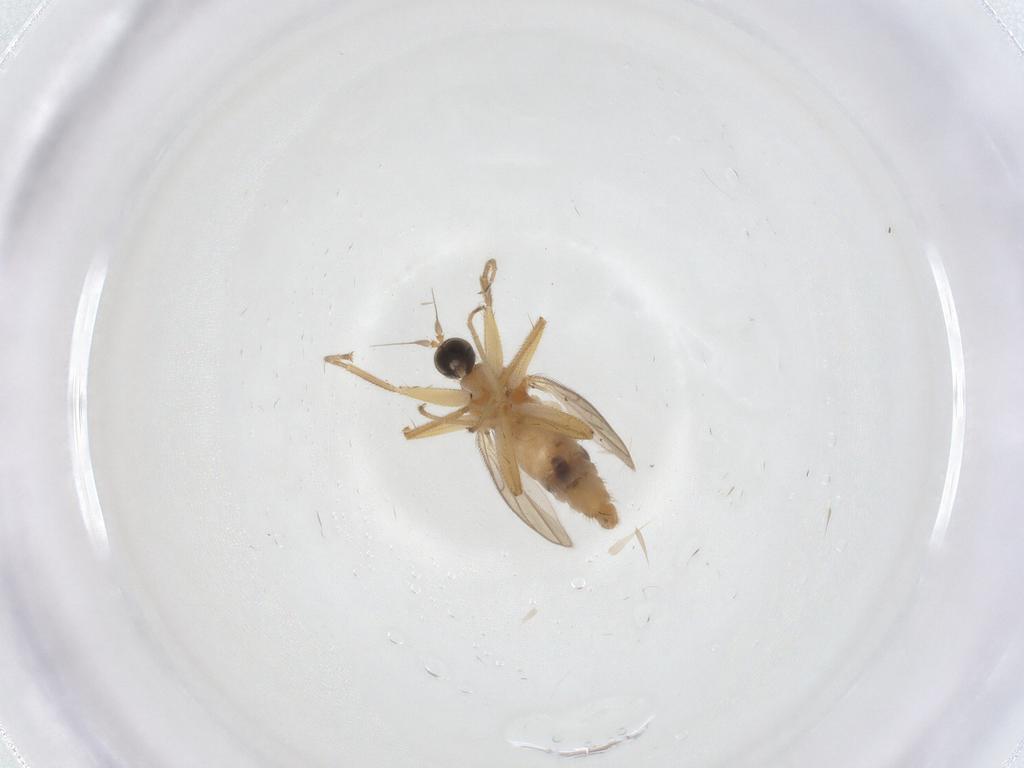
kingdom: Animalia
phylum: Arthropoda
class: Insecta
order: Diptera
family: Hybotidae
